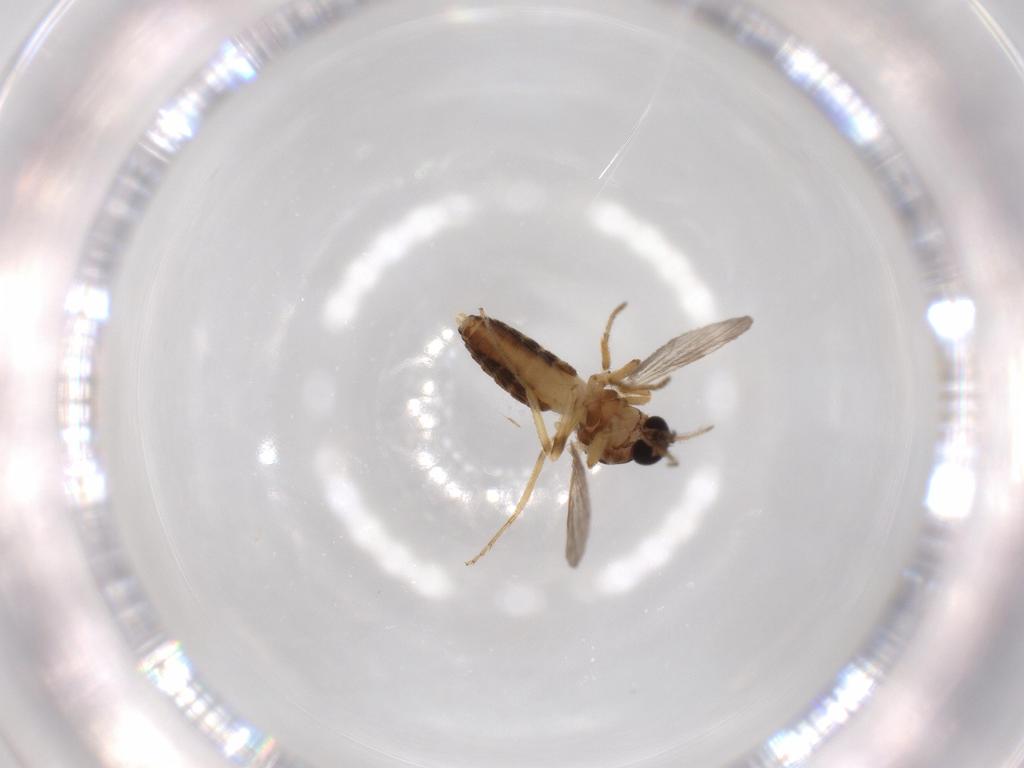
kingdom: Animalia
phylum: Arthropoda
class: Insecta
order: Diptera
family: Ceratopogonidae
